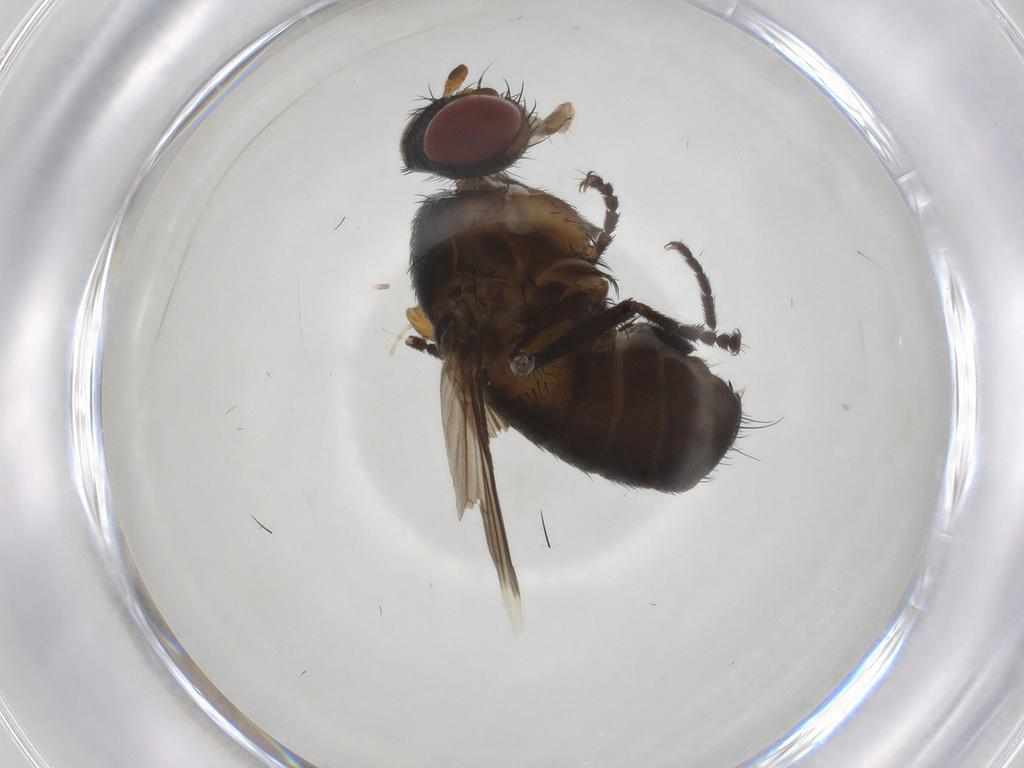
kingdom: Animalia
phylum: Arthropoda
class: Insecta
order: Diptera
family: Tachinidae
